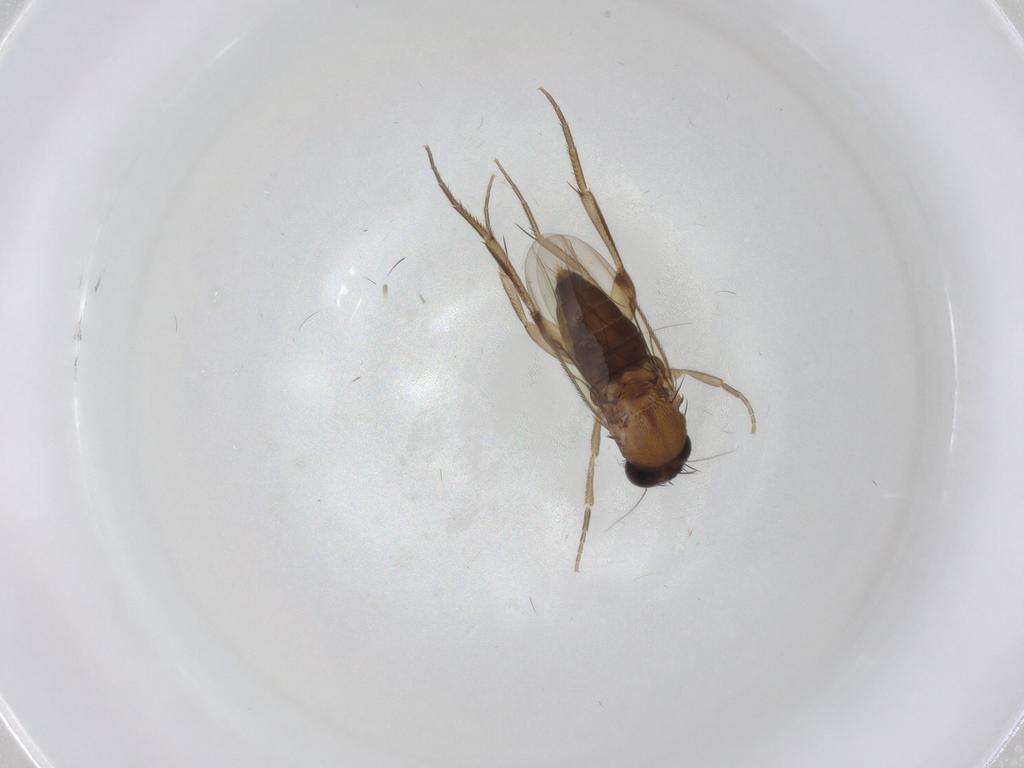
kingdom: Animalia
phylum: Arthropoda
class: Insecta
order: Diptera
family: Phoridae
